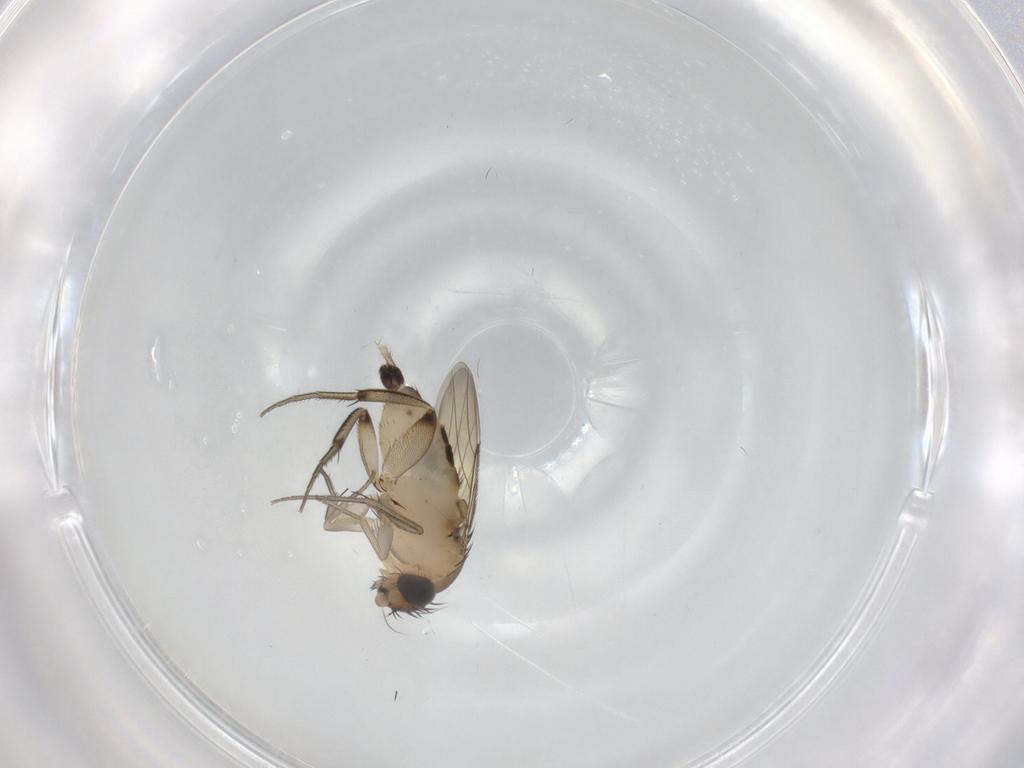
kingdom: Animalia
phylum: Arthropoda
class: Insecta
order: Diptera
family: Phoridae
